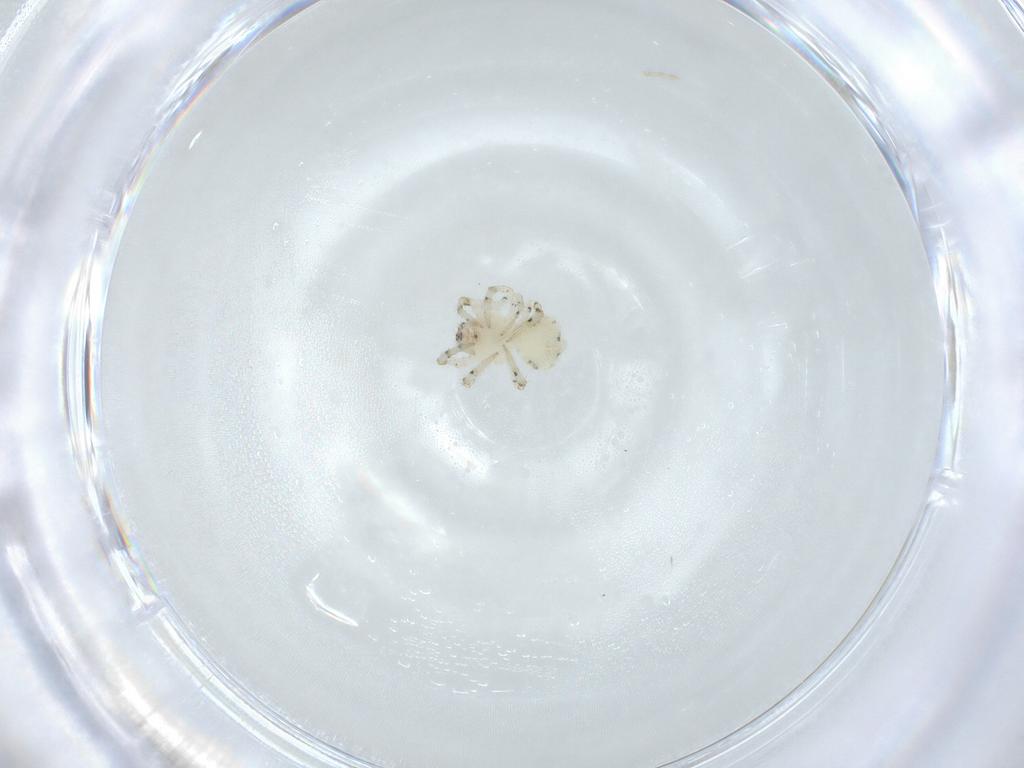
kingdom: Animalia
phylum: Arthropoda
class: Arachnida
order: Araneae
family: Theridiidae
